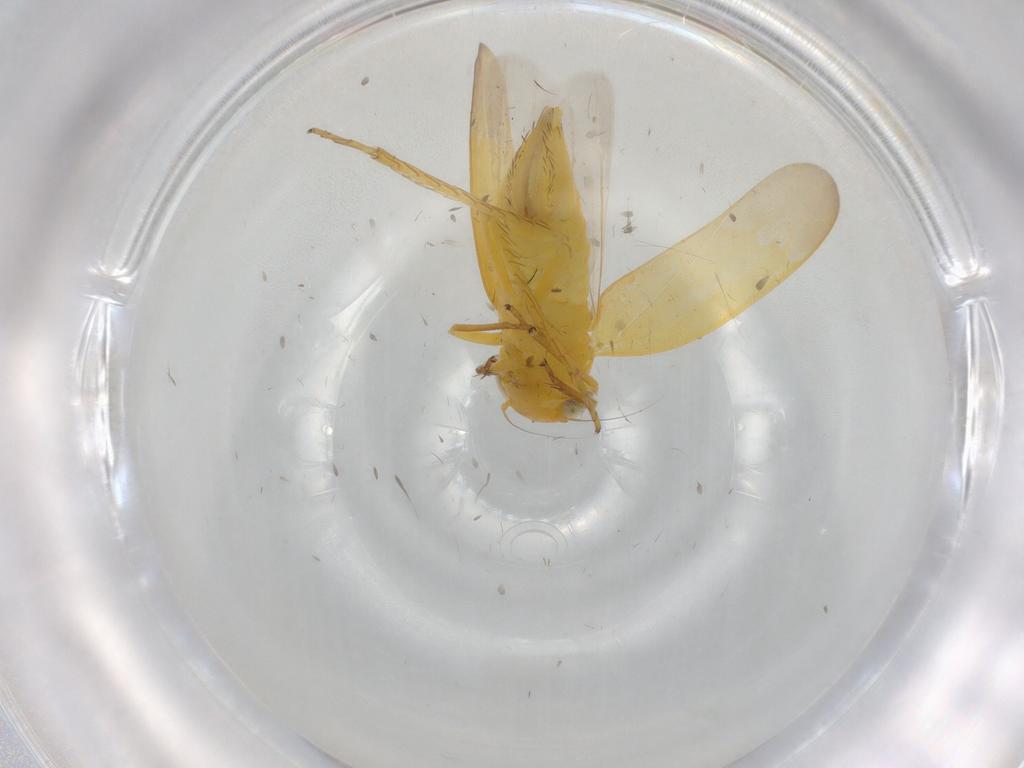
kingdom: Animalia
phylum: Arthropoda
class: Insecta
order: Hemiptera
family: Cicadellidae
